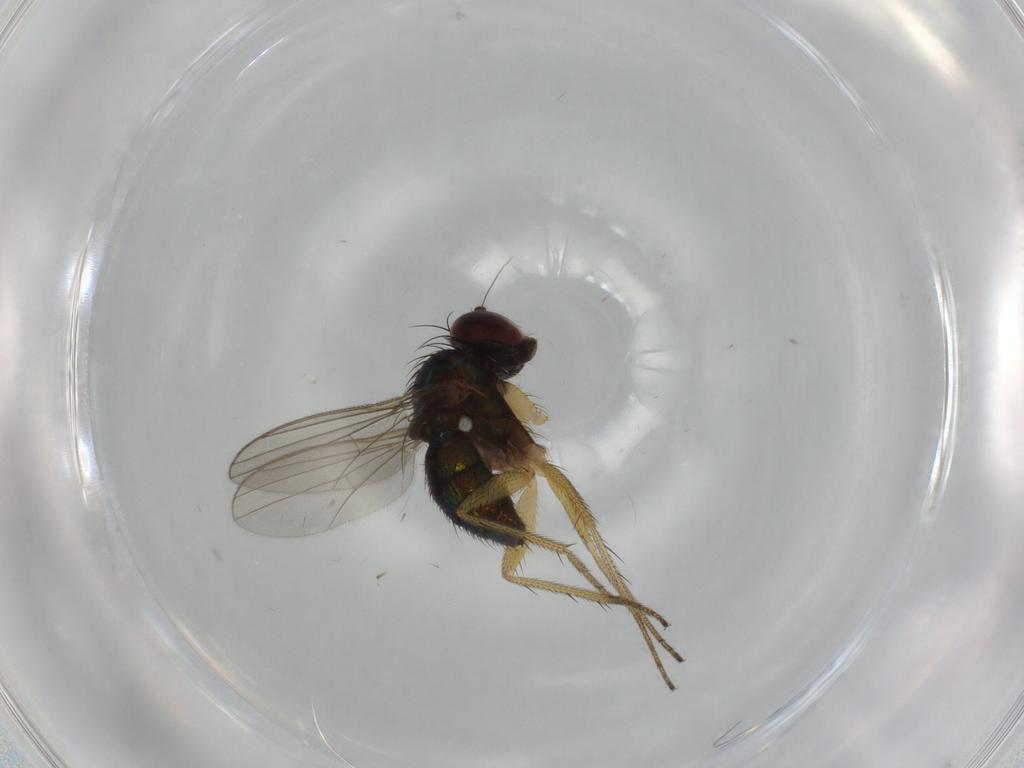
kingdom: Animalia
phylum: Arthropoda
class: Insecta
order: Diptera
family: Dolichopodidae
